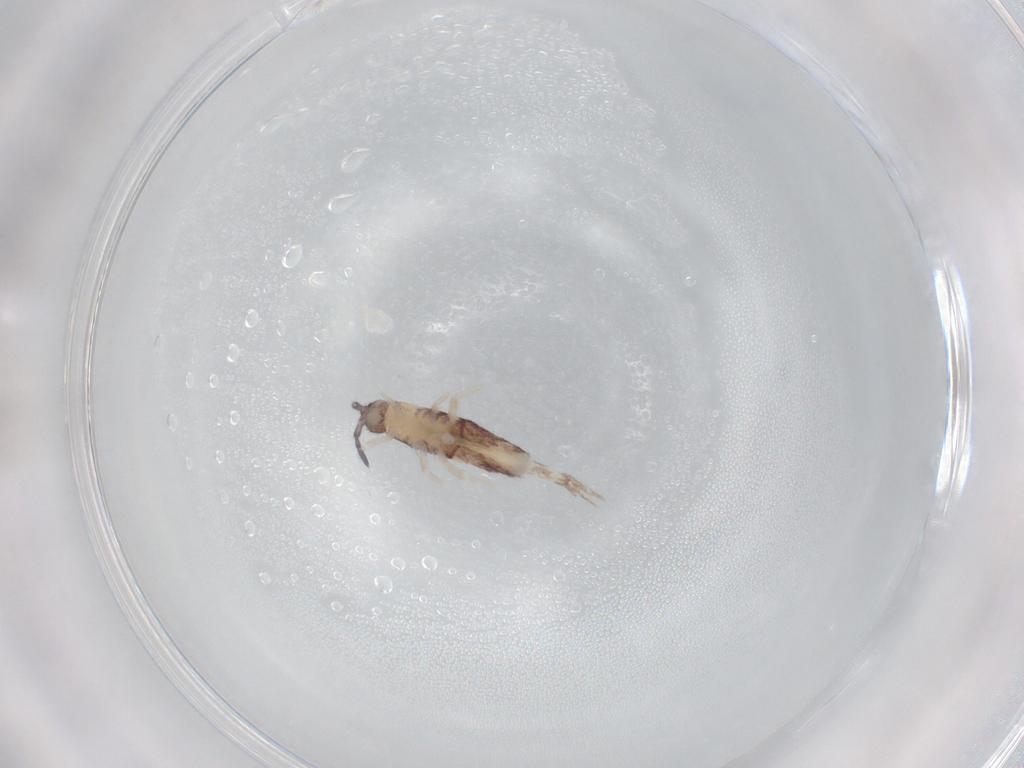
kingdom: Animalia
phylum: Arthropoda
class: Collembola
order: Entomobryomorpha
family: Entomobryidae
